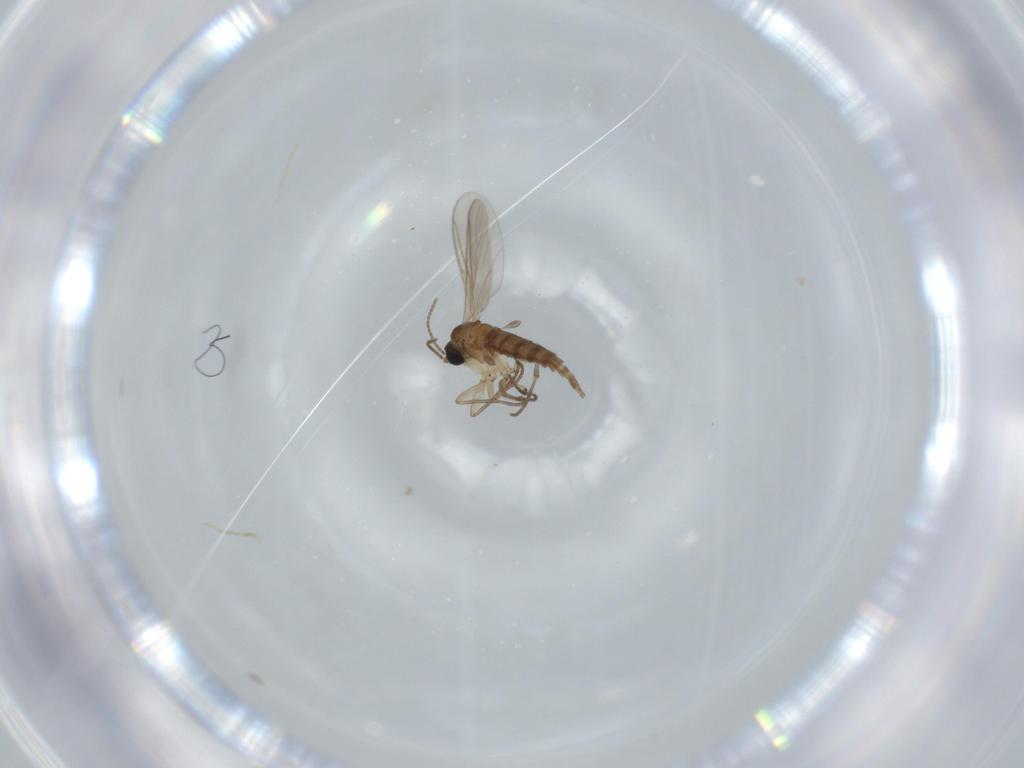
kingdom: Animalia
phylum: Arthropoda
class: Insecta
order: Diptera
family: Sciaridae
